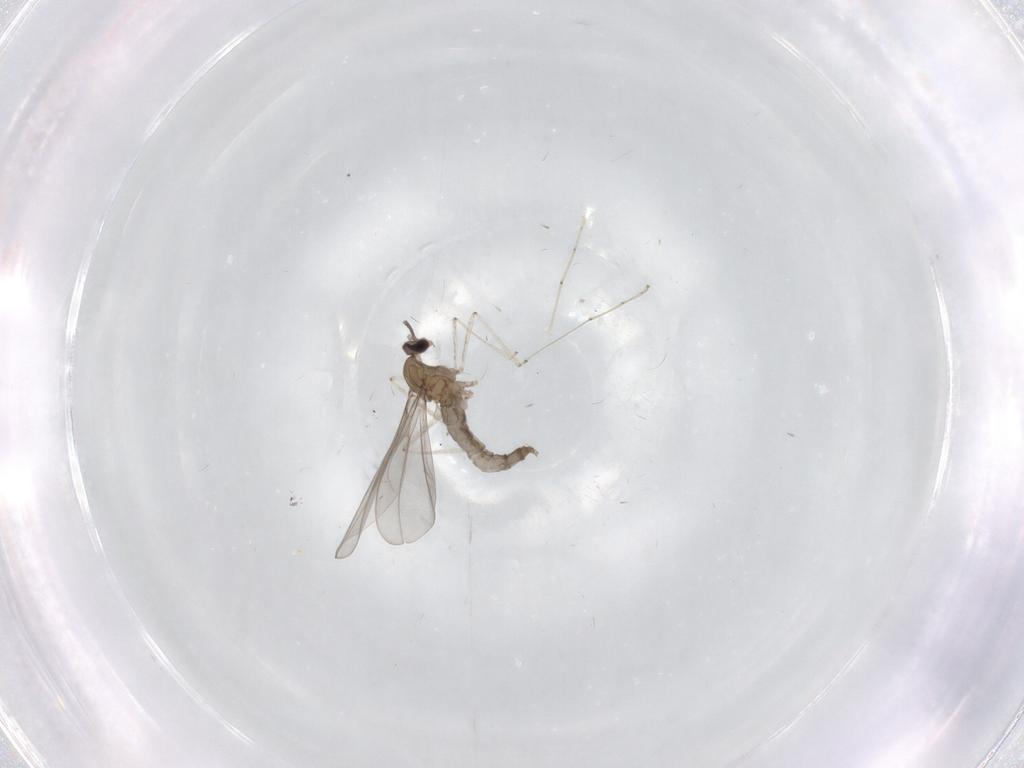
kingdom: Animalia
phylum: Arthropoda
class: Insecta
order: Diptera
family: Cecidomyiidae
